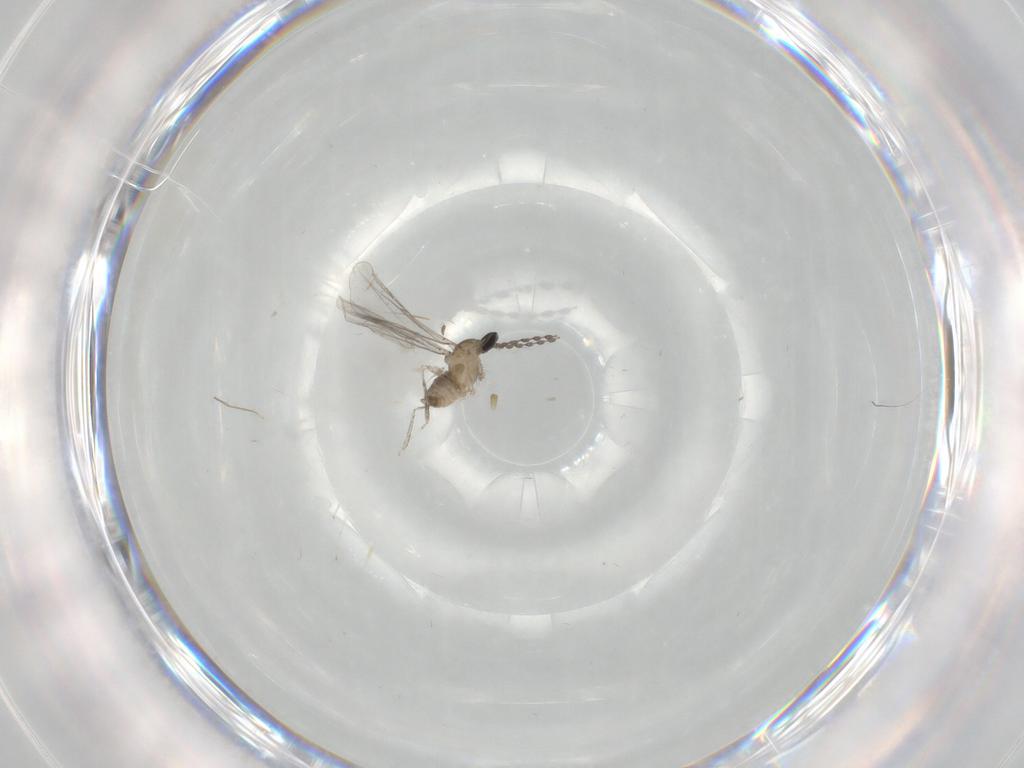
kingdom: Animalia
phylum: Arthropoda
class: Insecta
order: Diptera
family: Cecidomyiidae
